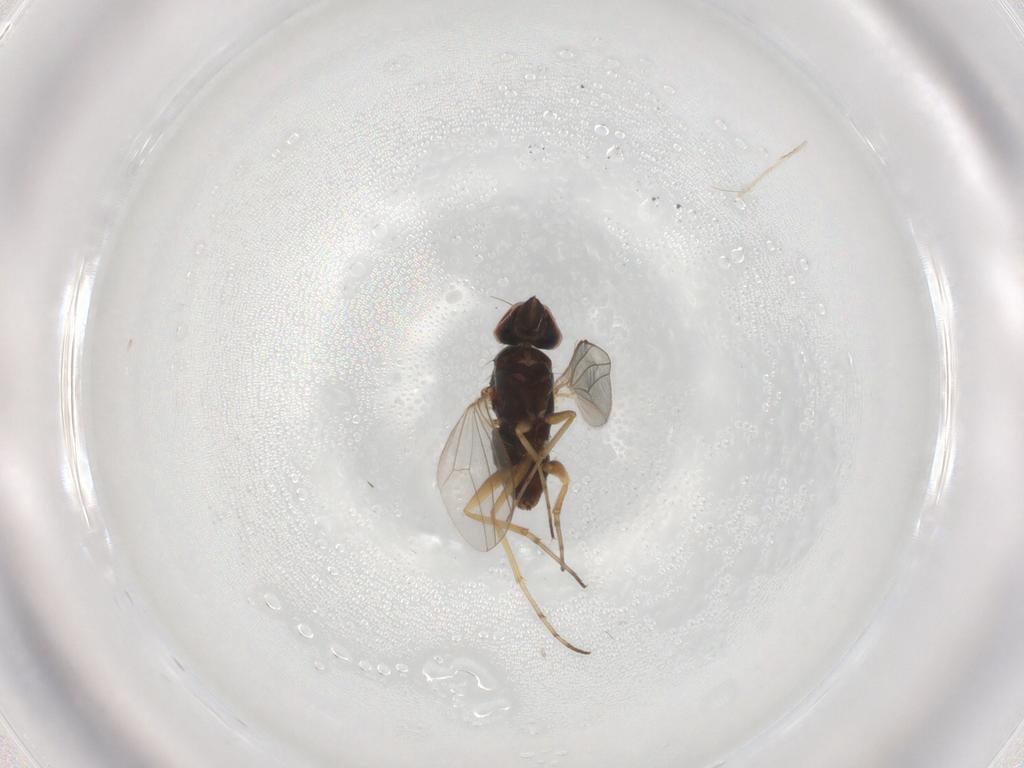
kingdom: Animalia
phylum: Arthropoda
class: Insecta
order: Diptera
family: Dolichopodidae
